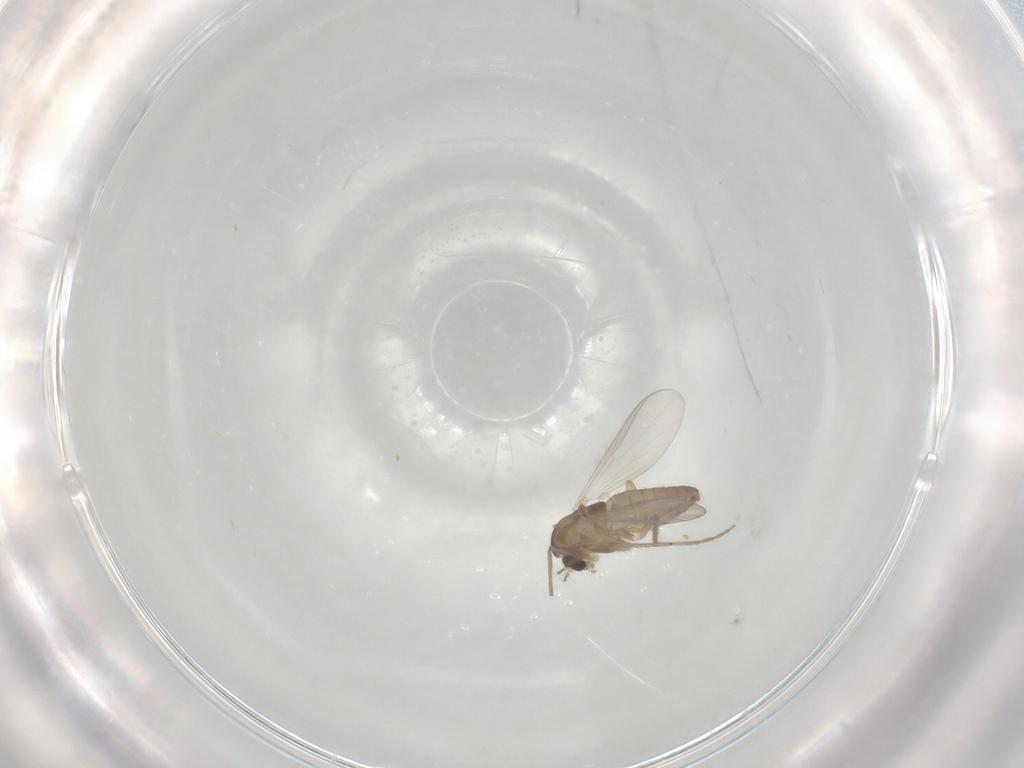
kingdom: Animalia
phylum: Arthropoda
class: Insecta
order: Diptera
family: Chironomidae
